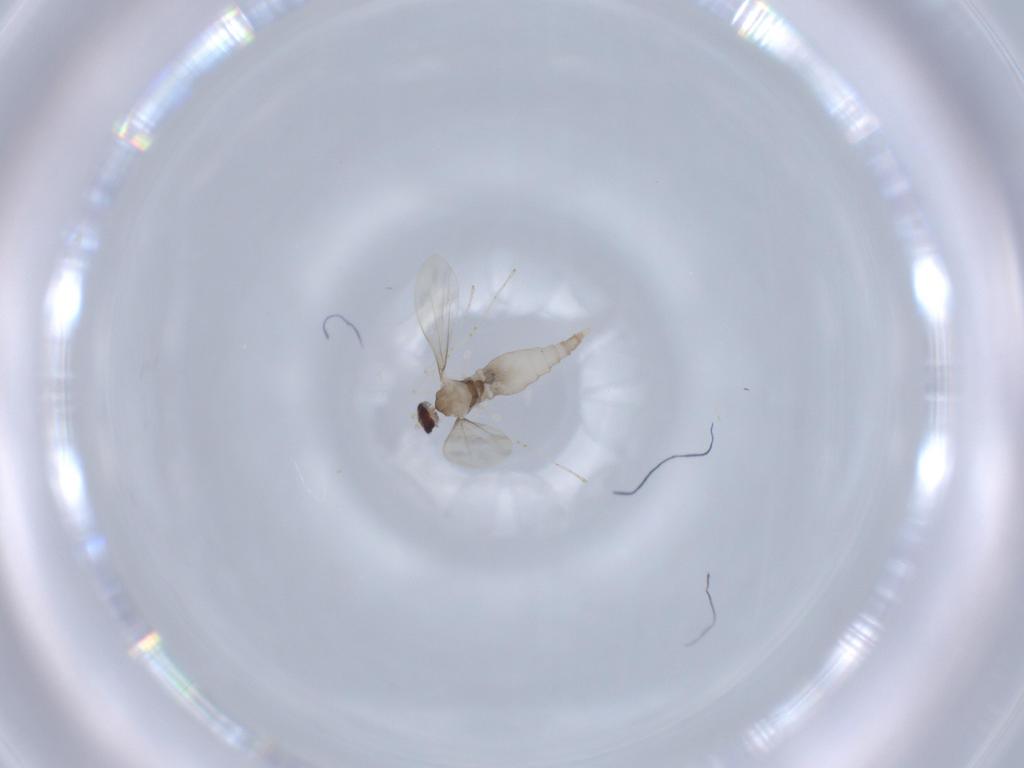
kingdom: Animalia
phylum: Arthropoda
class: Insecta
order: Diptera
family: Cecidomyiidae
